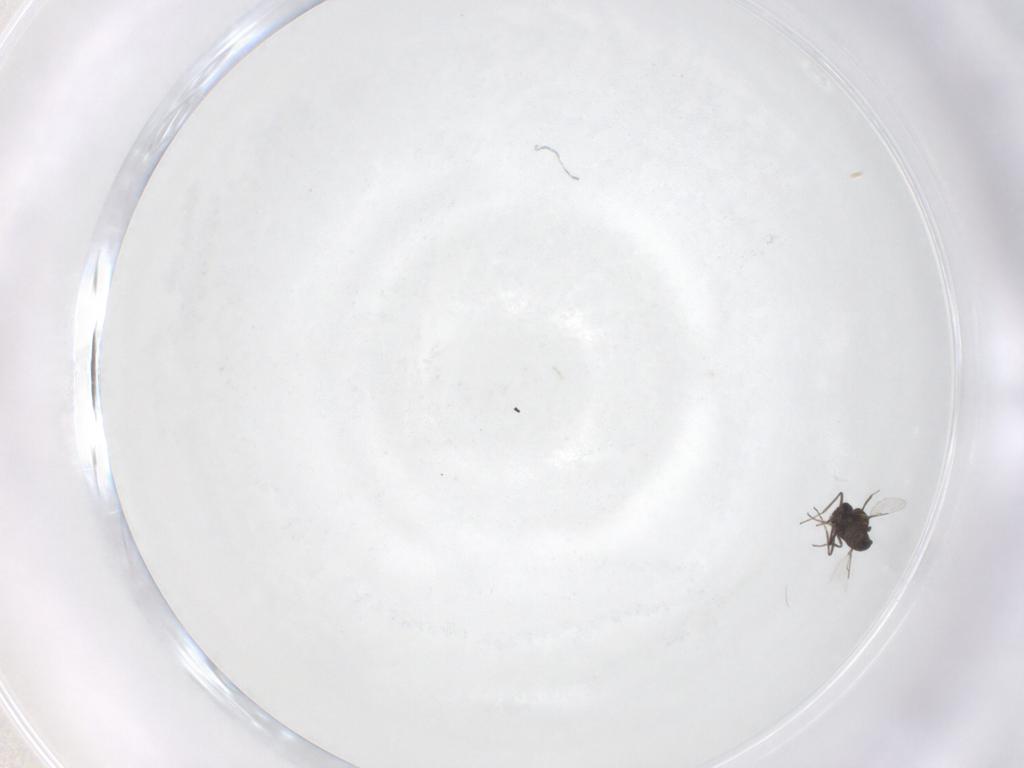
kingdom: Animalia
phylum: Arthropoda
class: Insecta
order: Diptera
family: Ceratopogonidae
